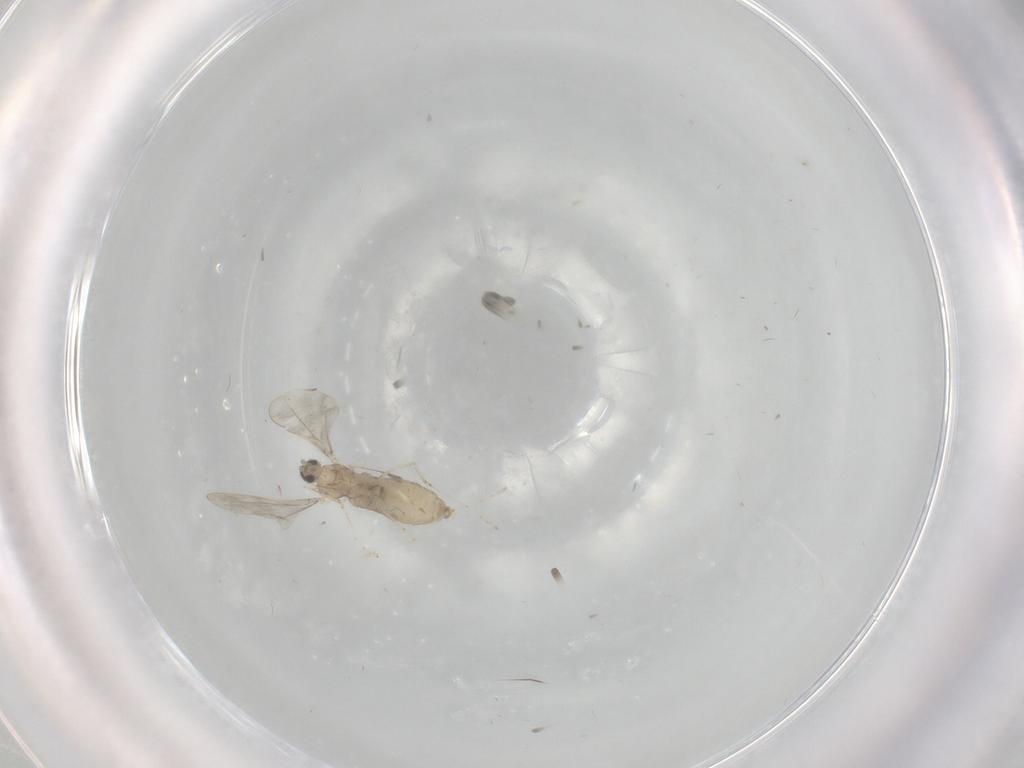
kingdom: Animalia
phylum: Arthropoda
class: Insecta
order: Diptera
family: Cecidomyiidae
